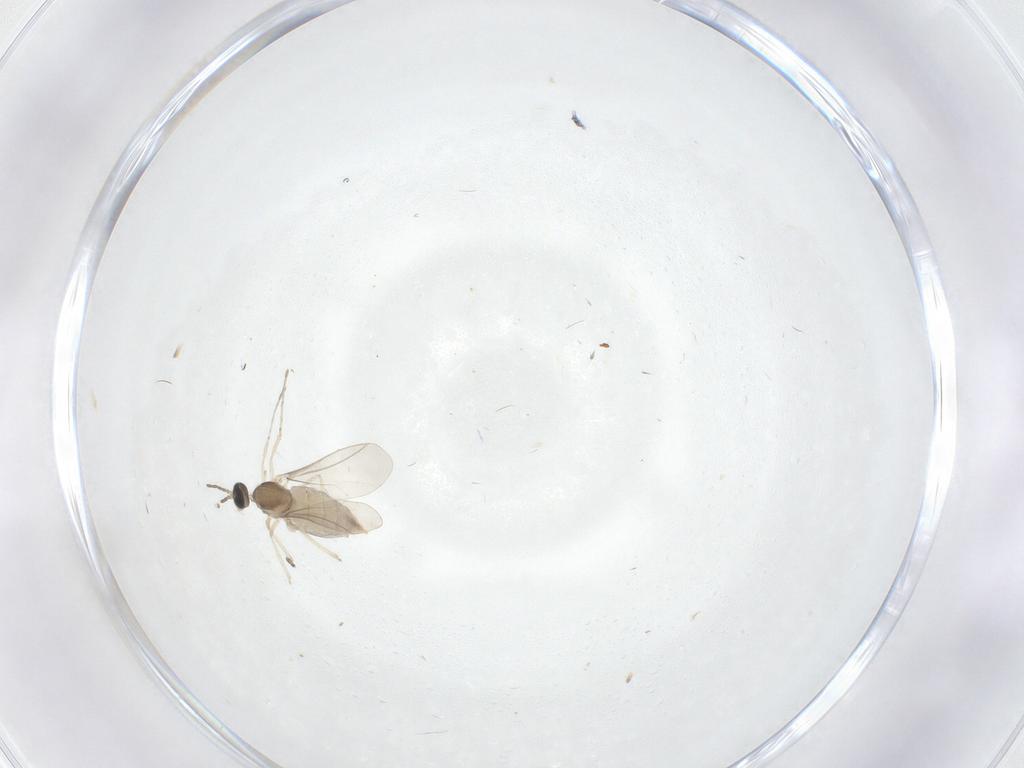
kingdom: Animalia
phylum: Arthropoda
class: Insecta
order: Diptera
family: Cecidomyiidae
